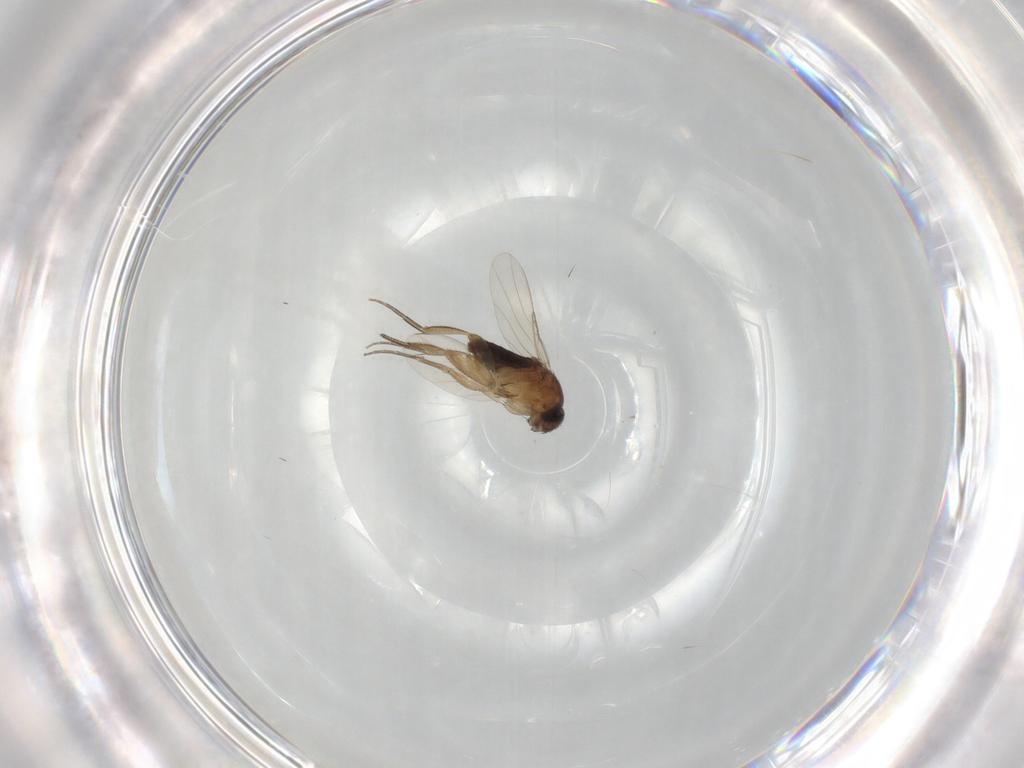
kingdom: Animalia
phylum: Arthropoda
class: Insecta
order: Diptera
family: Phoridae
